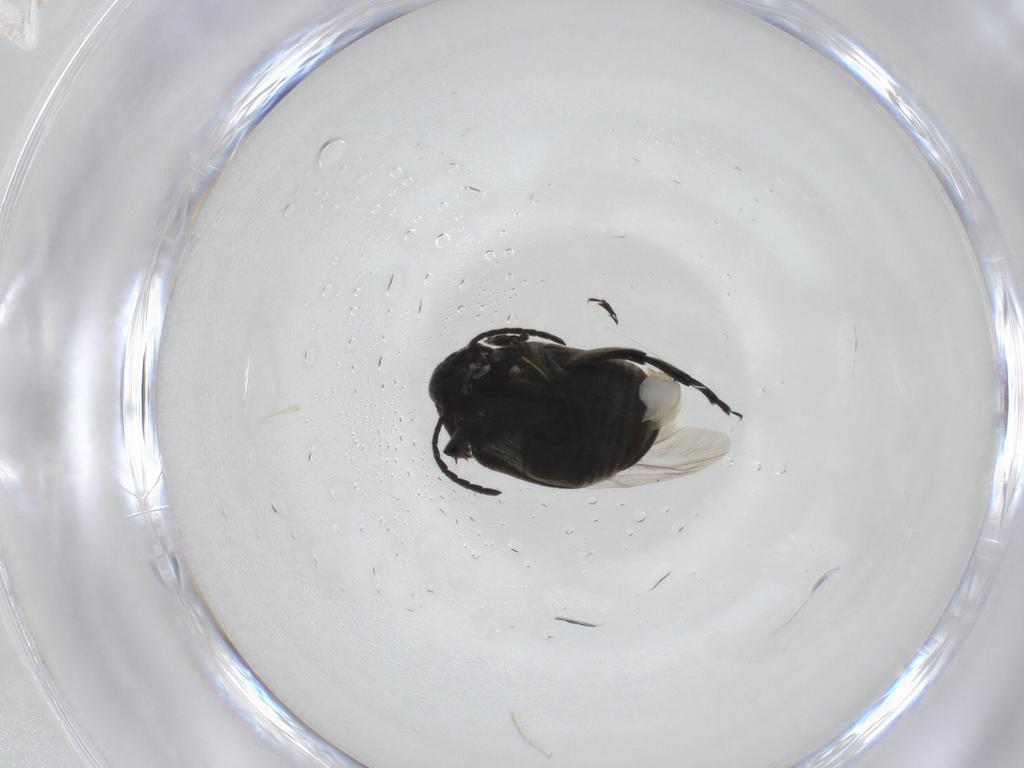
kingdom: Animalia
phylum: Arthropoda
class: Insecta
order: Coleoptera
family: Chrysomelidae
